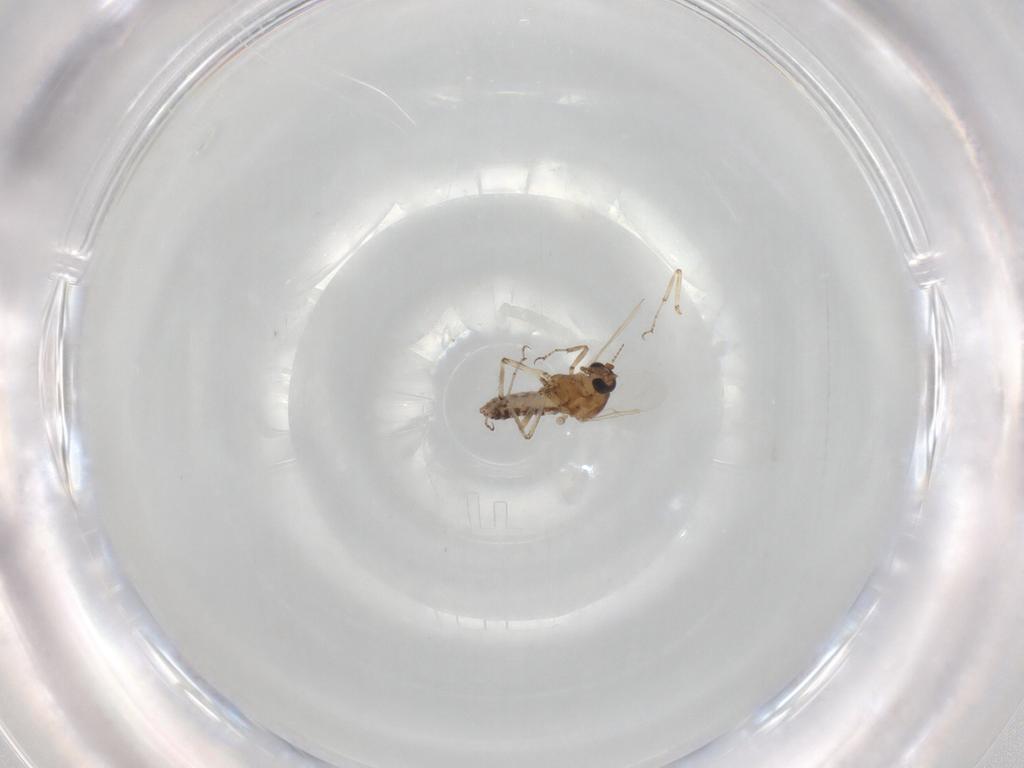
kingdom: Animalia
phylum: Arthropoda
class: Insecta
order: Diptera
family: Ceratopogonidae
